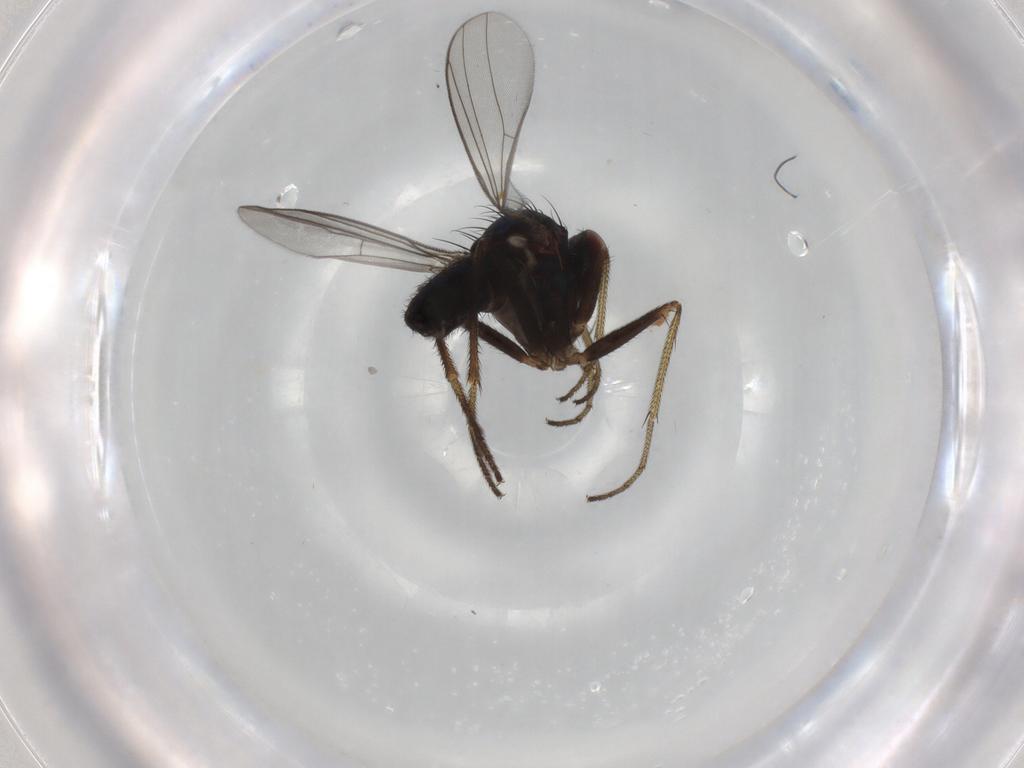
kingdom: Animalia
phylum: Arthropoda
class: Insecta
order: Diptera
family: Dolichopodidae
